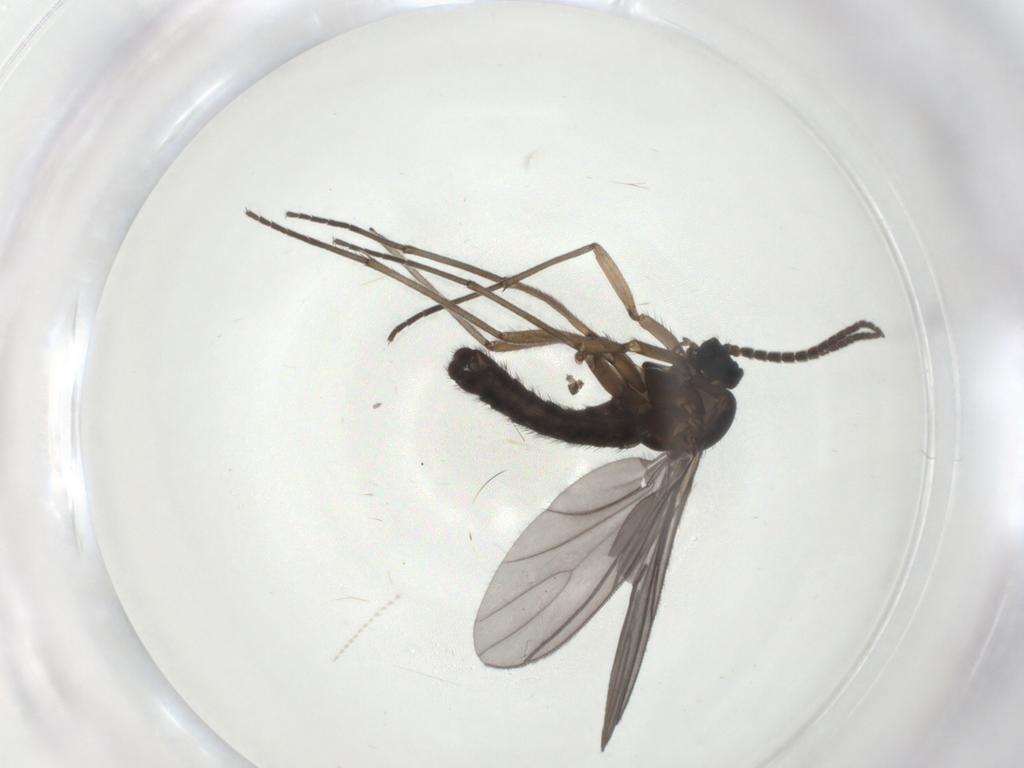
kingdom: Animalia
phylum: Arthropoda
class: Insecta
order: Diptera
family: Sciaridae
